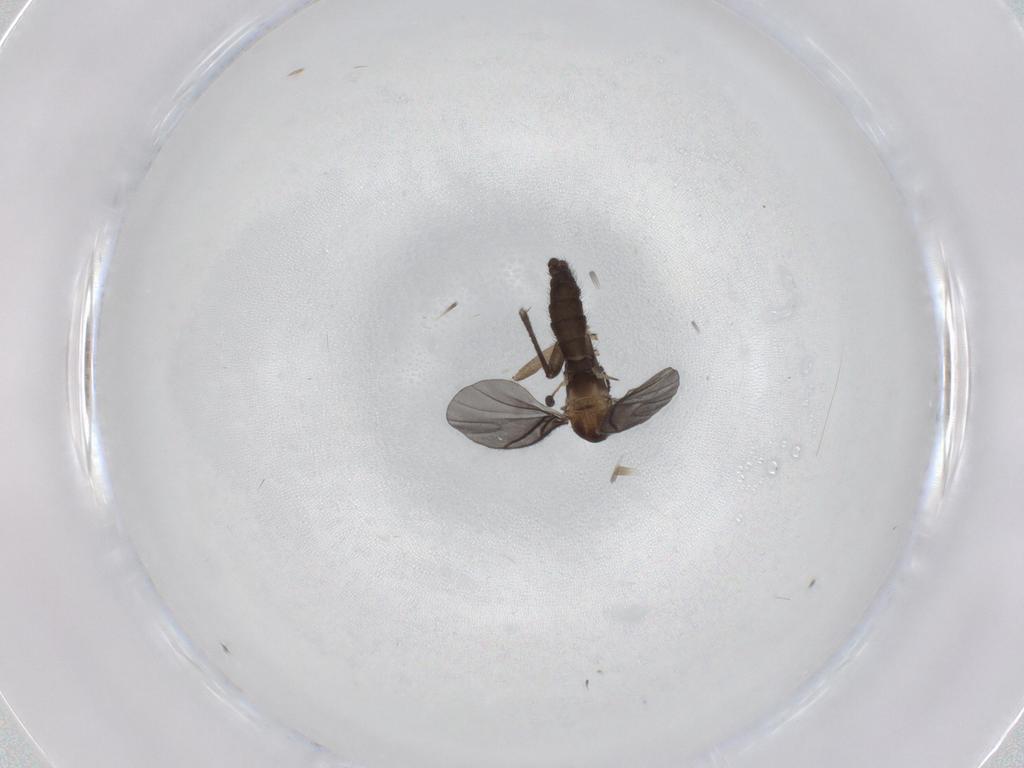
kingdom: Animalia
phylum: Arthropoda
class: Insecta
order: Diptera
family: Sciaridae
